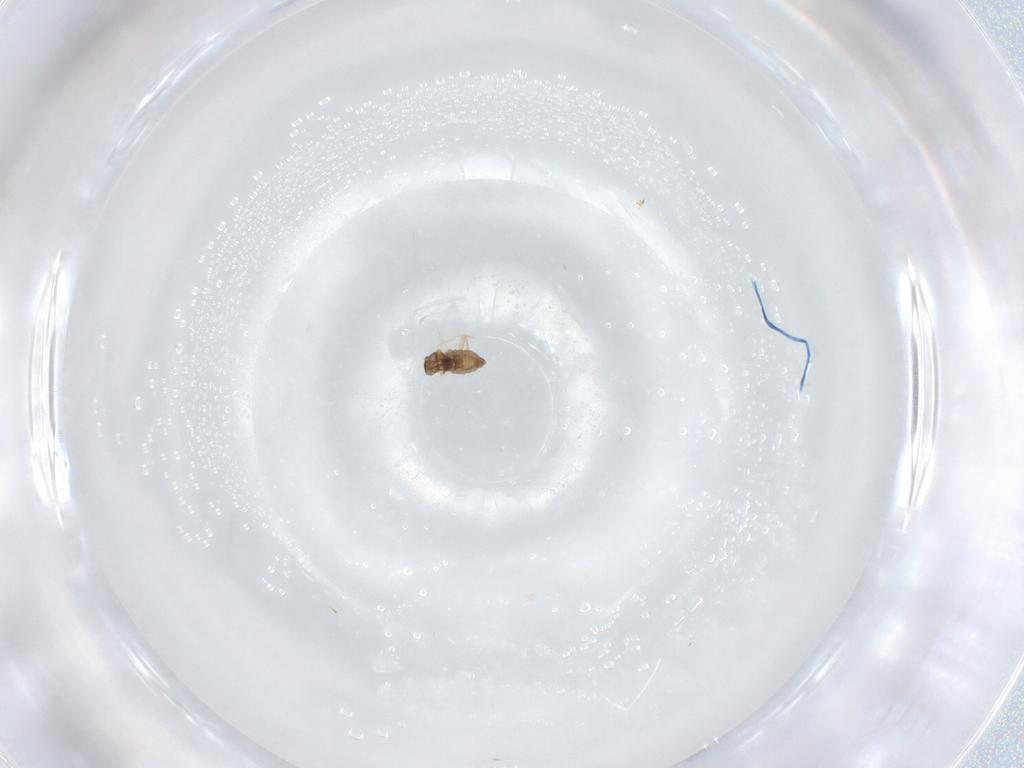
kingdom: Animalia
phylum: Arthropoda
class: Insecta
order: Diptera
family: Cecidomyiidae
